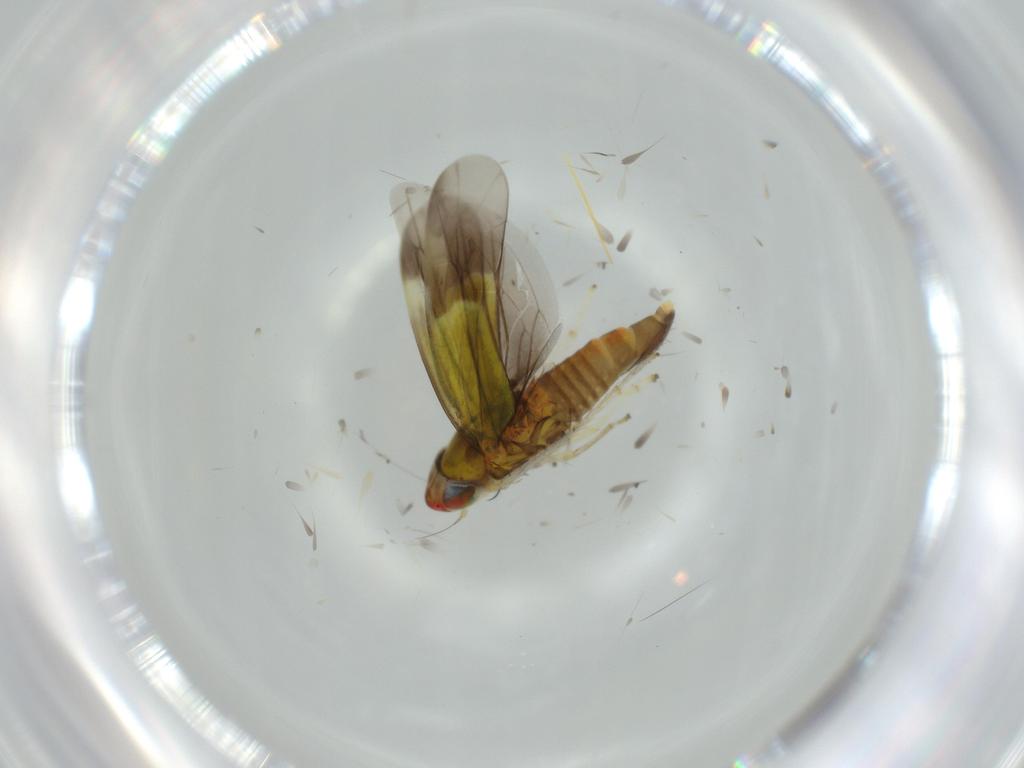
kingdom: Animalia
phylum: Arthropoda
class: Insecta
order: Hemiptera
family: Cicadellidae
